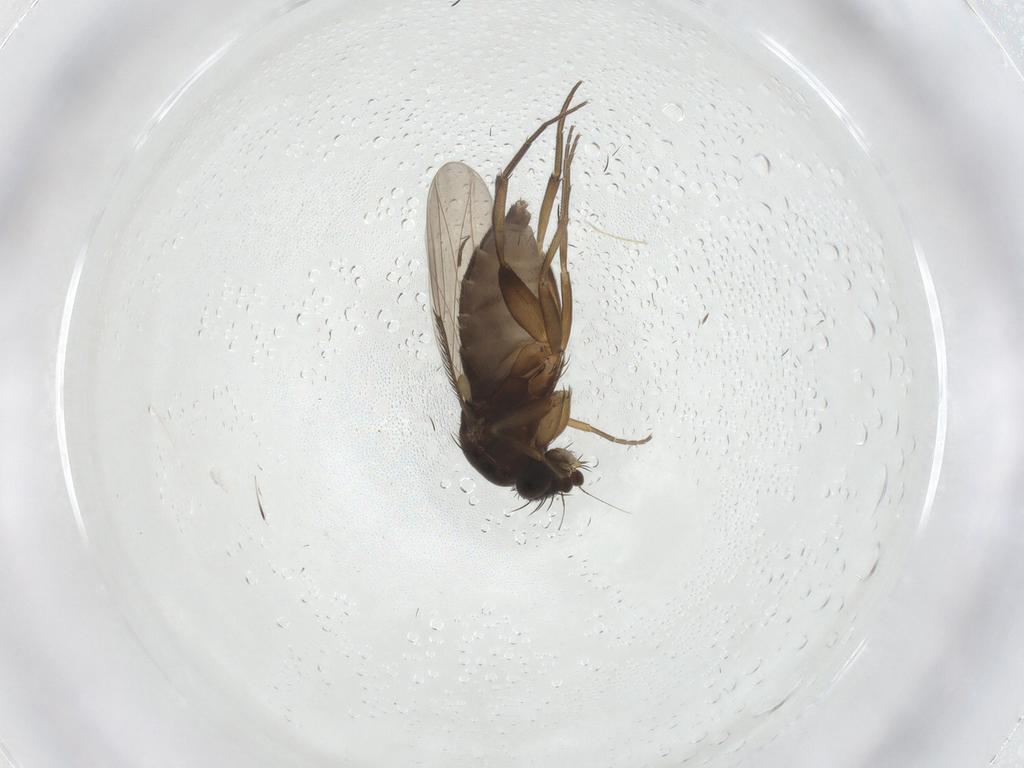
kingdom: Animalia
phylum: Arthropoda
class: Insecta
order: Diptera
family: Phoridae
